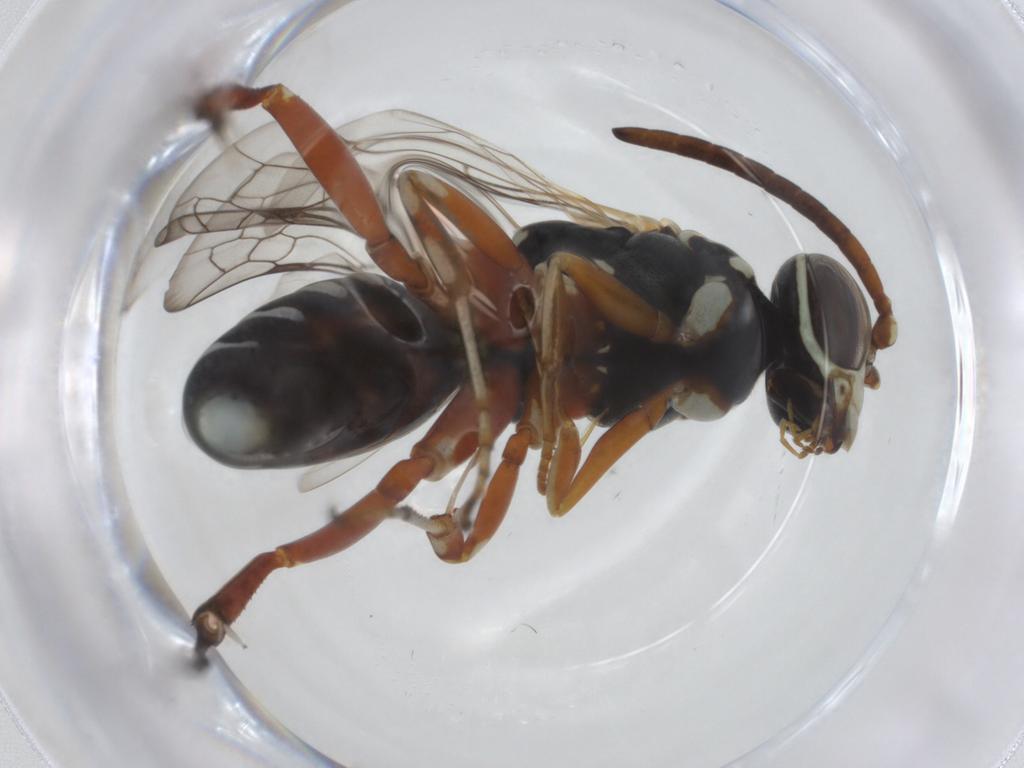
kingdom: Animalia
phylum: Arthropoda
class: Insecta
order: Hymenoptera
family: Pompilidae
